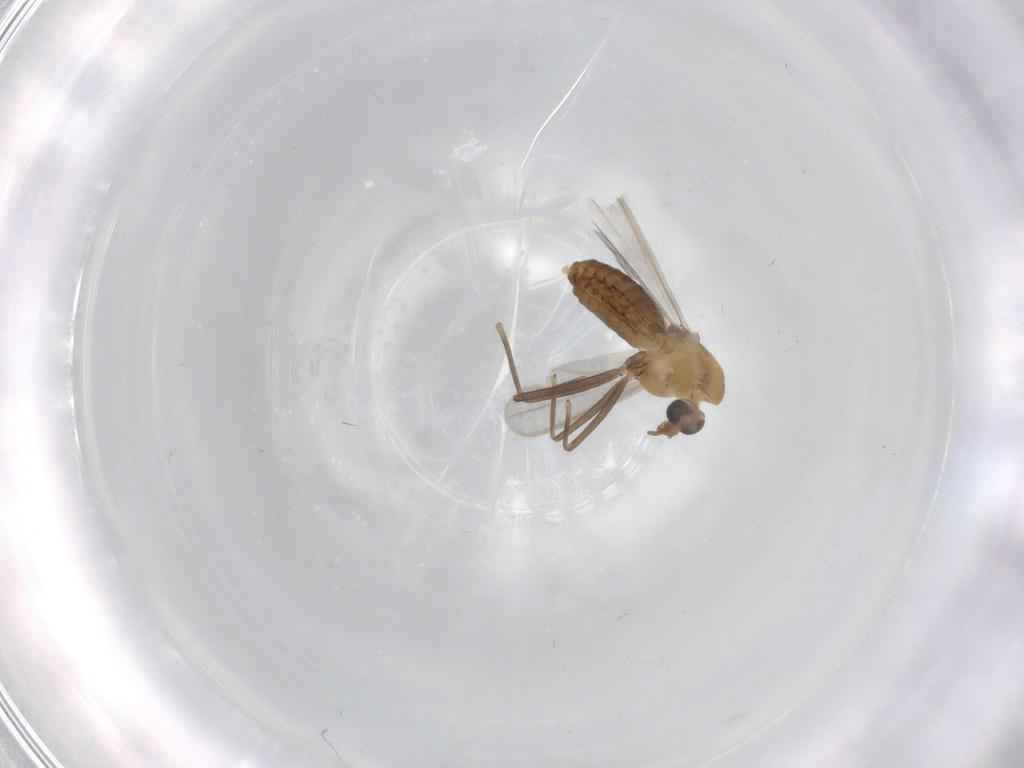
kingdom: Animalia
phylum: Arthropoda
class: Insecta
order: Diptera
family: Chironomidae
